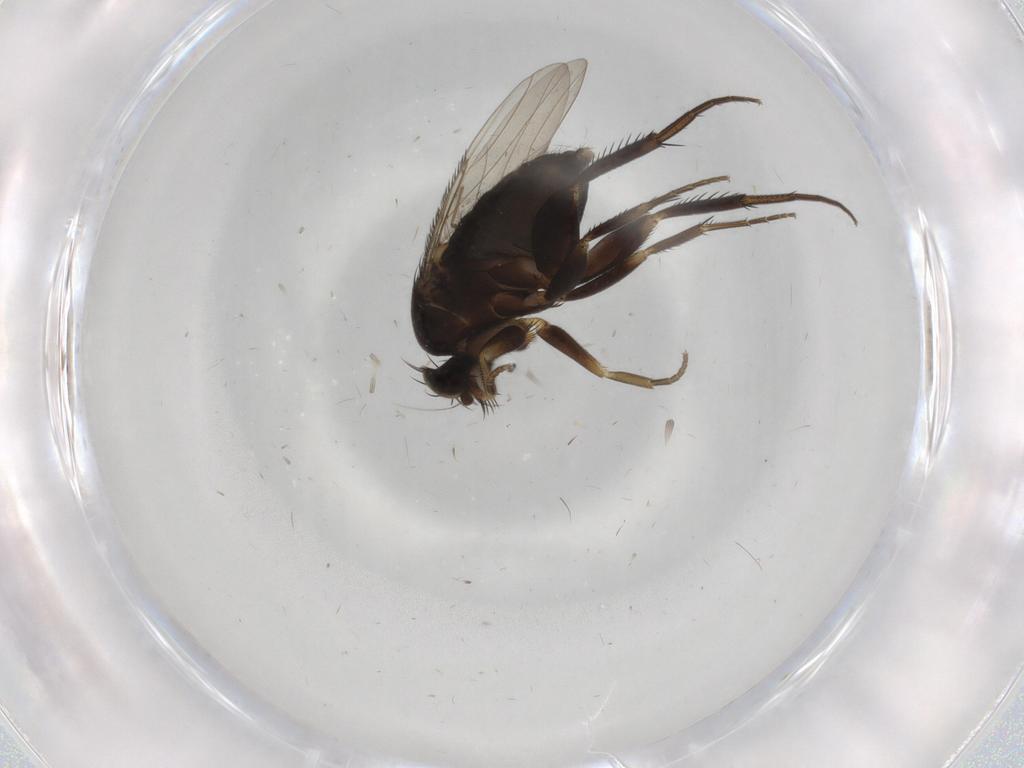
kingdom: Animalia
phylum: Arthropoda
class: Insecta
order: Diptera
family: Phoridae
